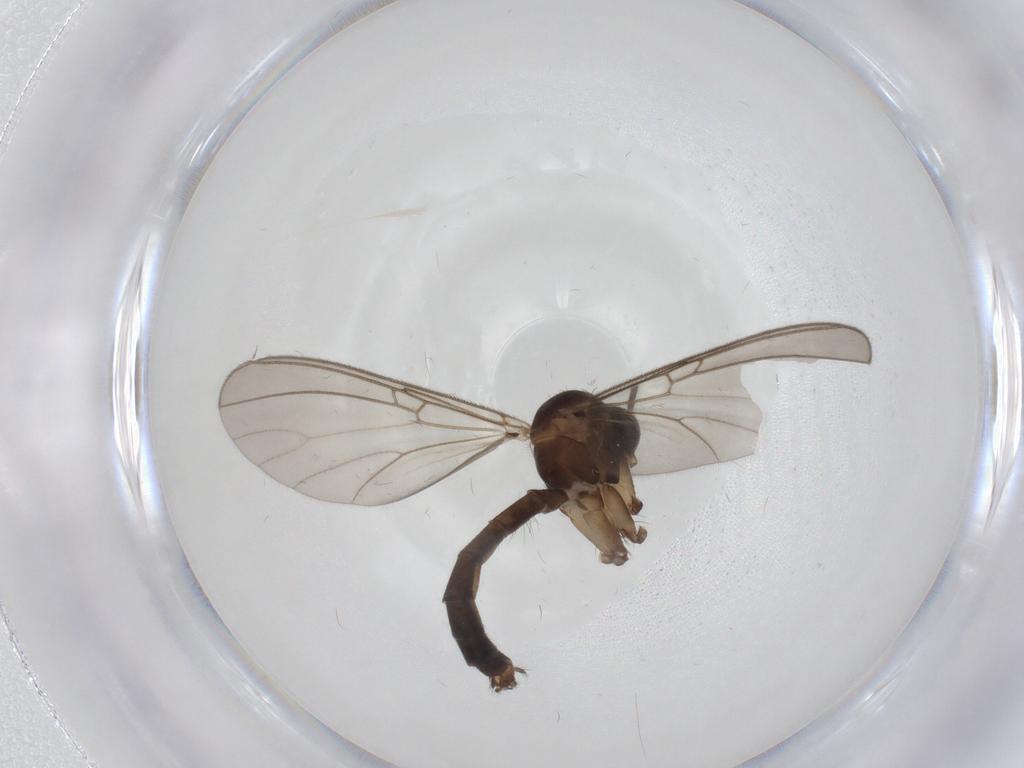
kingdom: Animalia
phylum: Arthropoda
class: Insecta
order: Diptera
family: Mycetophilidae
